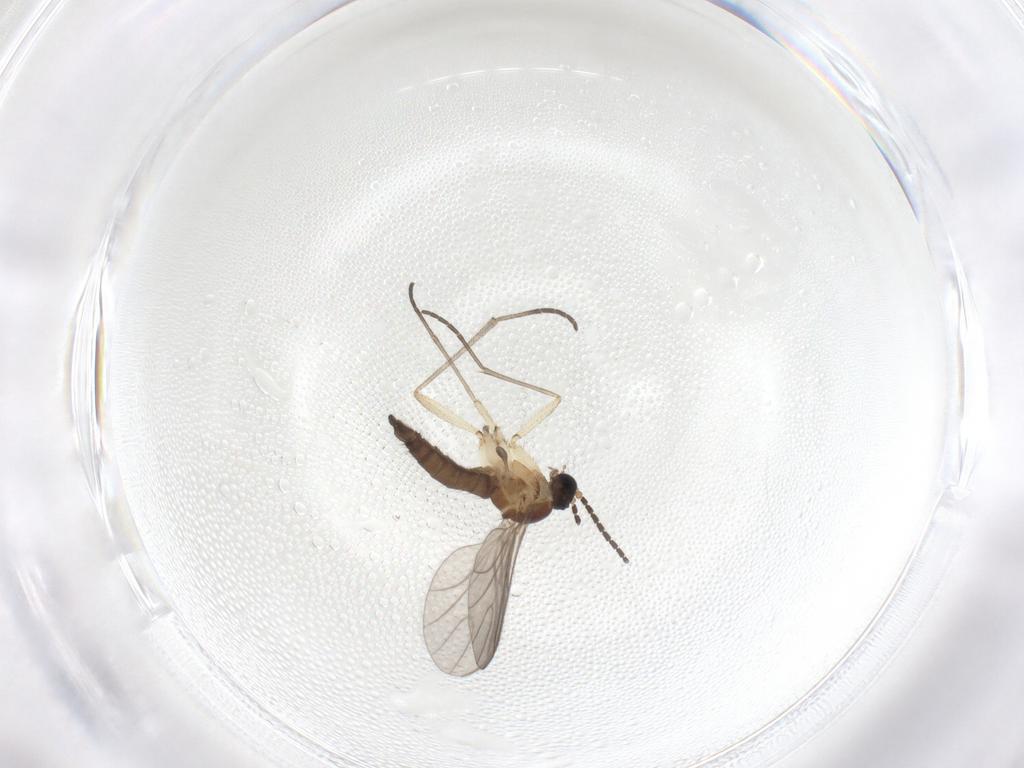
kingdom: Animalia
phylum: Arthropoda
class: Insecta
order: Diptera
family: Sciaridae
